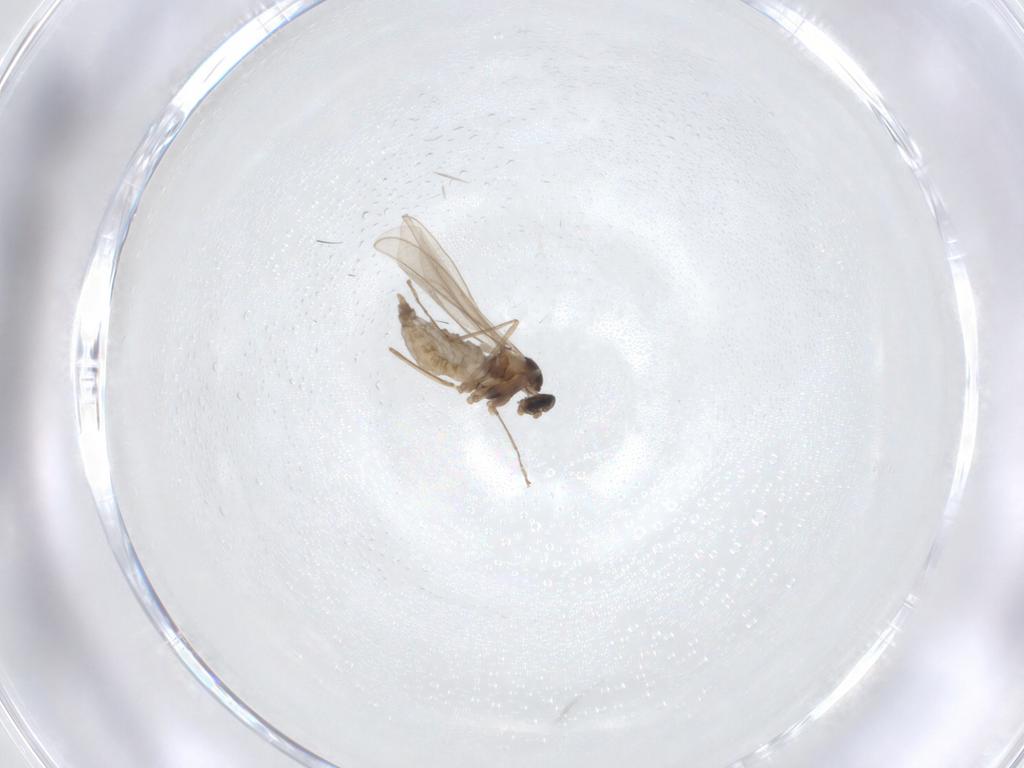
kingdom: Animalia
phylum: Arthropoda
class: Insecta
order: Diptera
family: Cecidomyiidae
